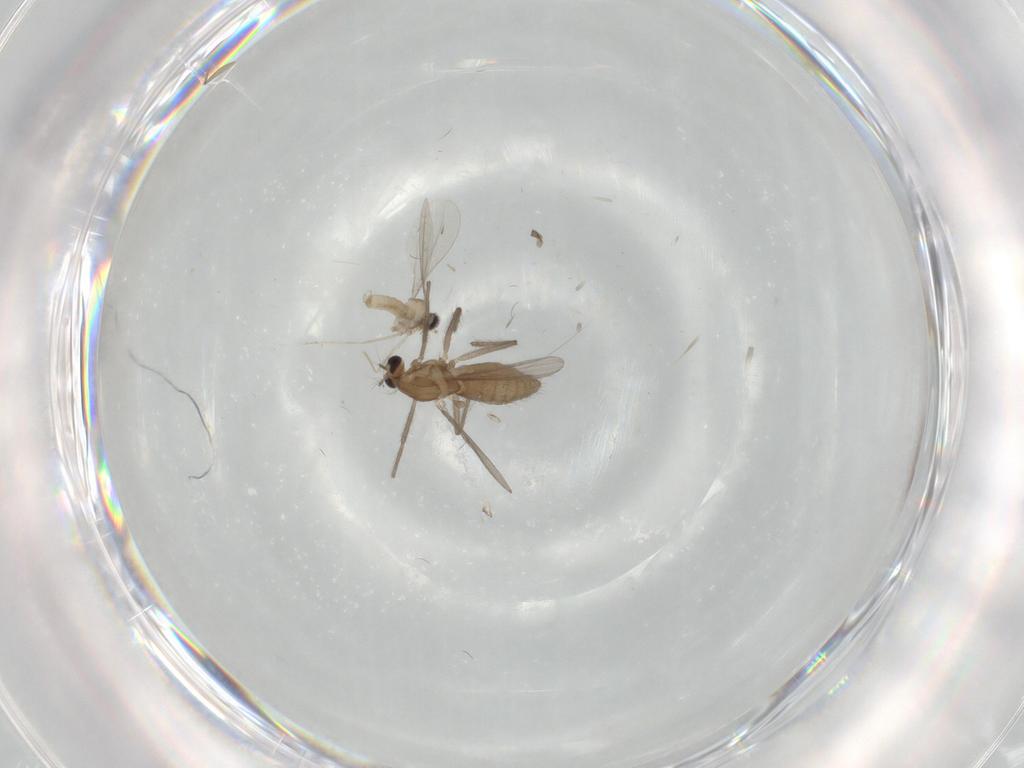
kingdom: Animalia
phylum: Arthropoda
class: Insecta
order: Diptera
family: Chironomidae
